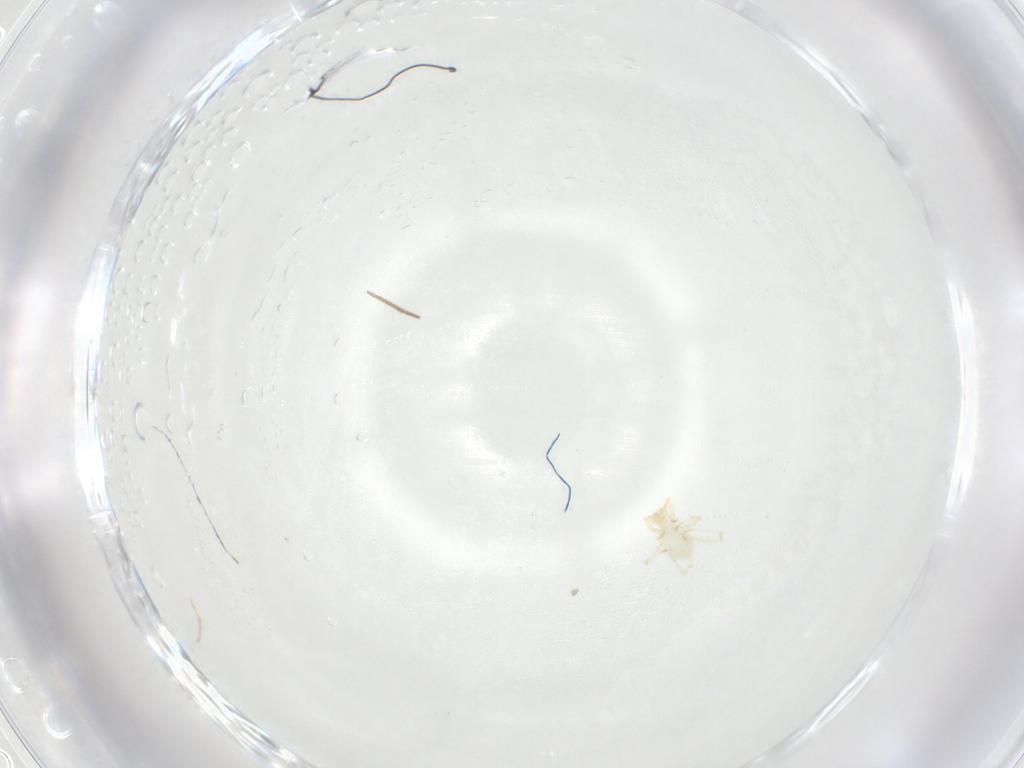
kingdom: Animalia
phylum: Arthropoda
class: Arachnida
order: Trombidiformes
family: Erythraeidae
